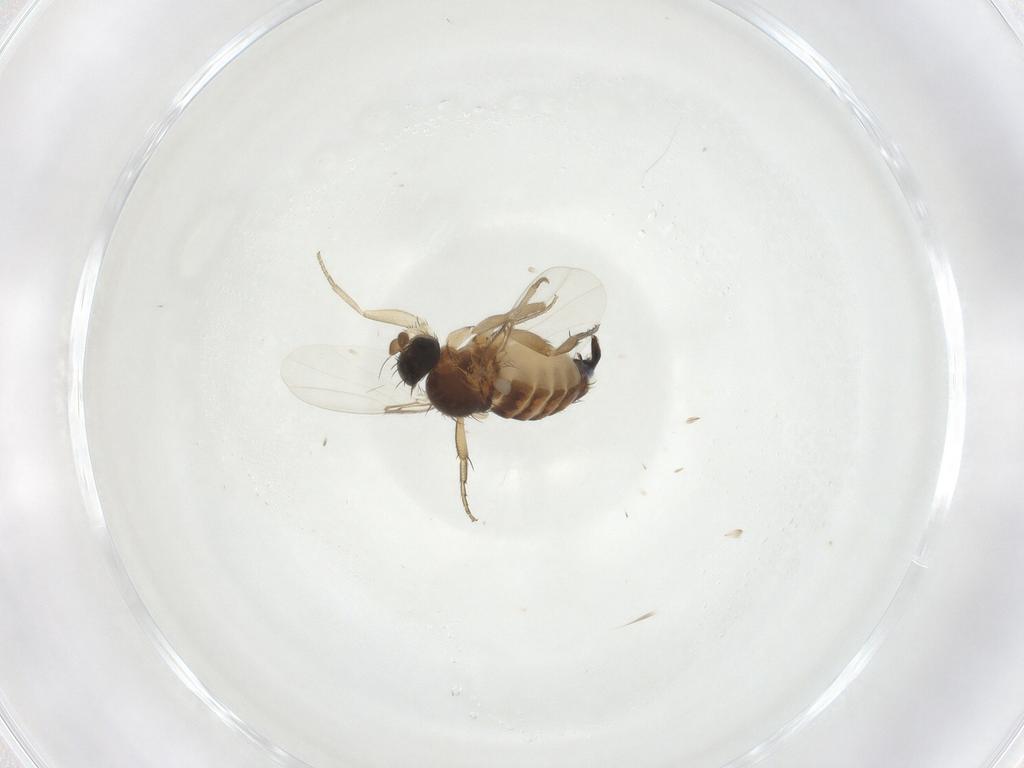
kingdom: Animalia
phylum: Arthropoda
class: Insecta
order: Diptera
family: Phoridae
